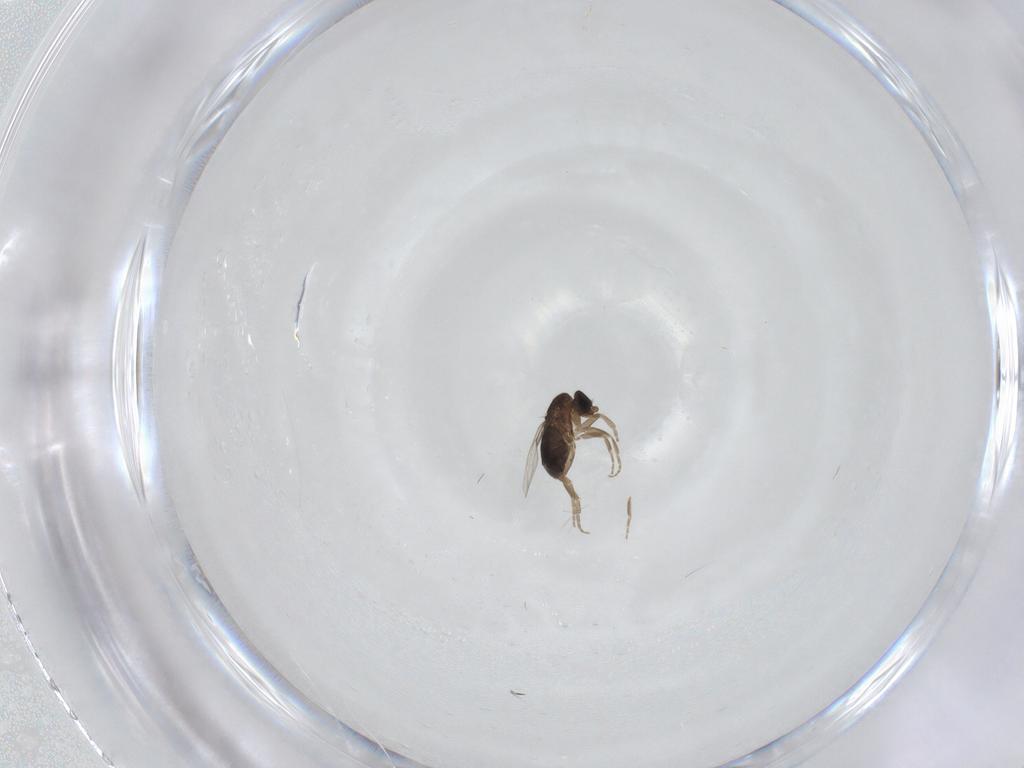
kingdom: Animalia
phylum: Arthropoda
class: Insecta
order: Diptera
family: Phoridae
